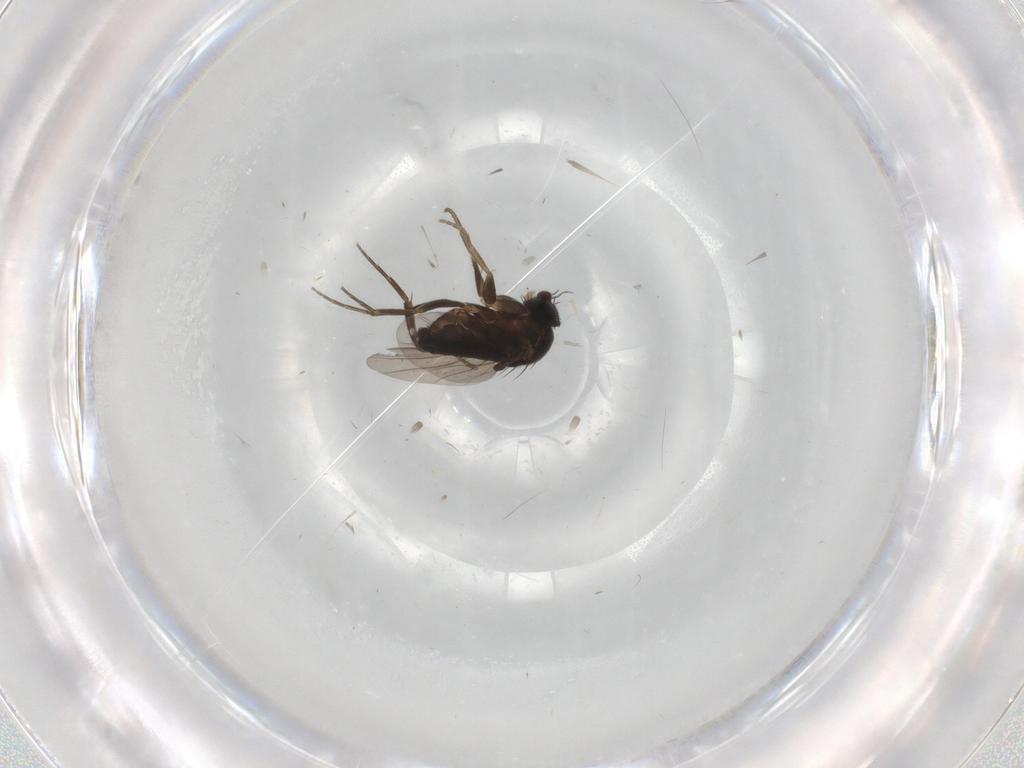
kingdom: Animalia
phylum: Arthropoda
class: Insecta
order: Diptera
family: Phoridae
